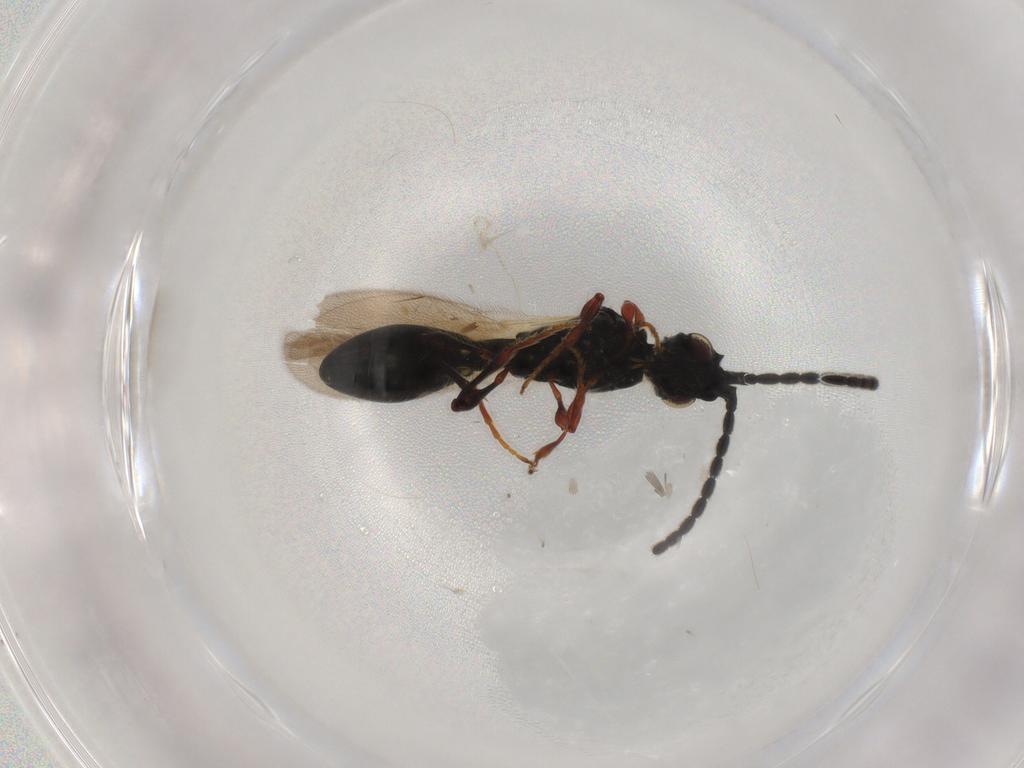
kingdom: Animalia
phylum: Arthropoda
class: Insecta
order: Hymenoptera
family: Diapriidae
